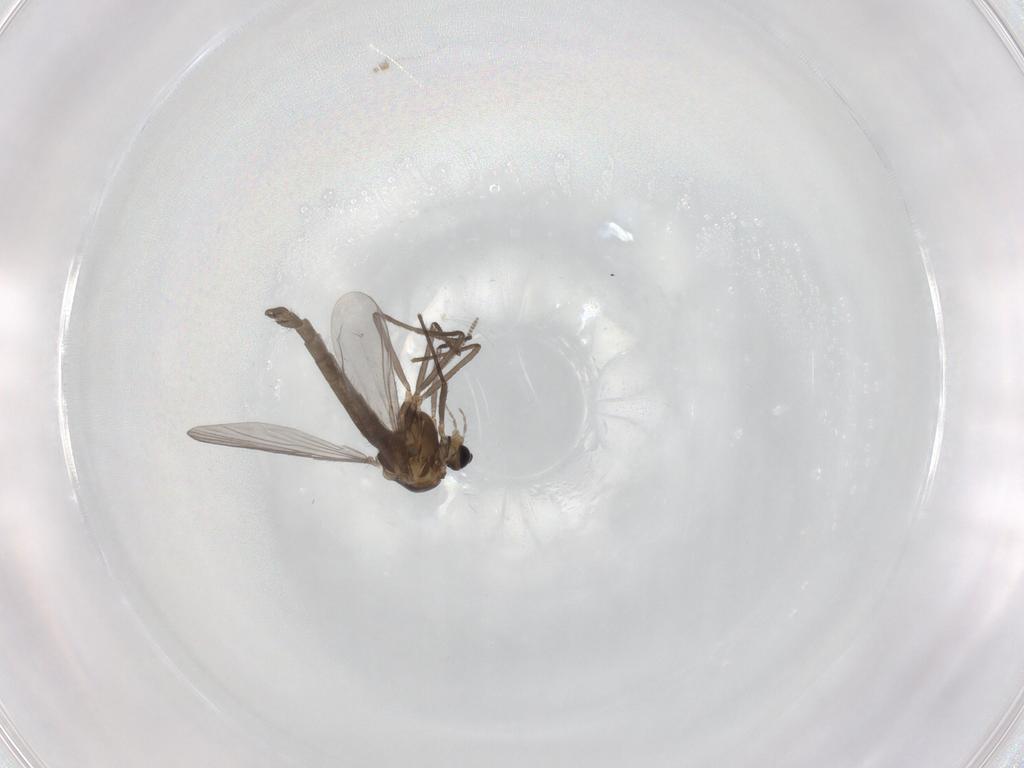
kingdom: Animalia
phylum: Arthropoda
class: Insecta
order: Diptera
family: Chironomidae
